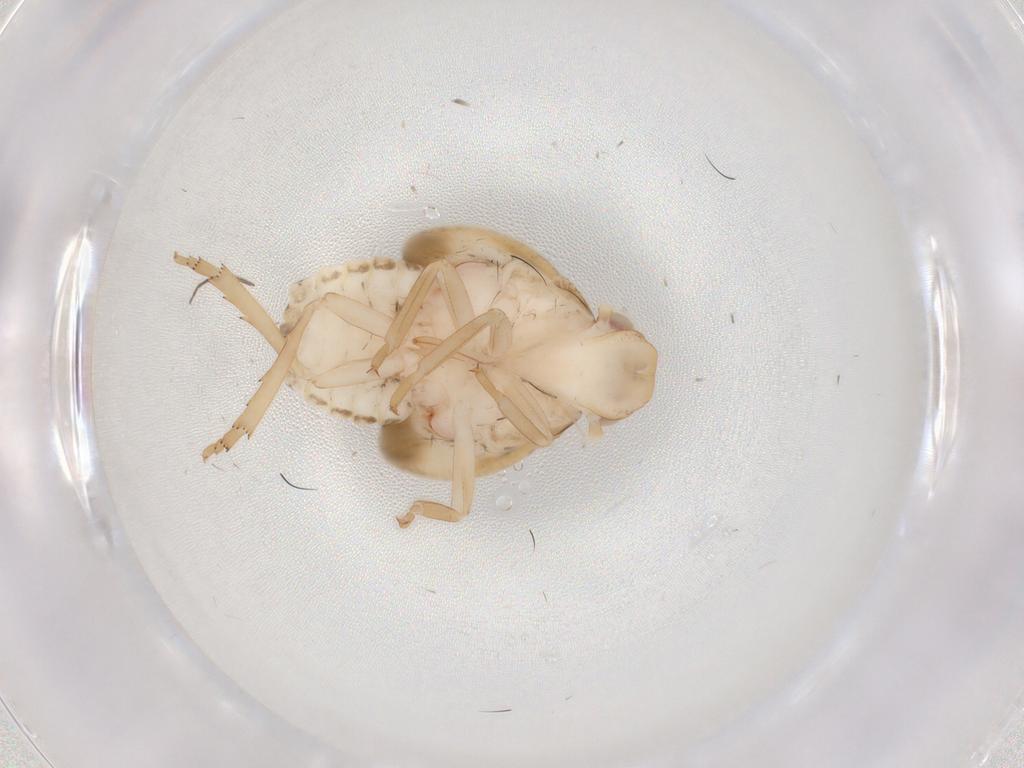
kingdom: Animalia
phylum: Arthropoda
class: Insecta
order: Hemiptera
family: Flatidae
